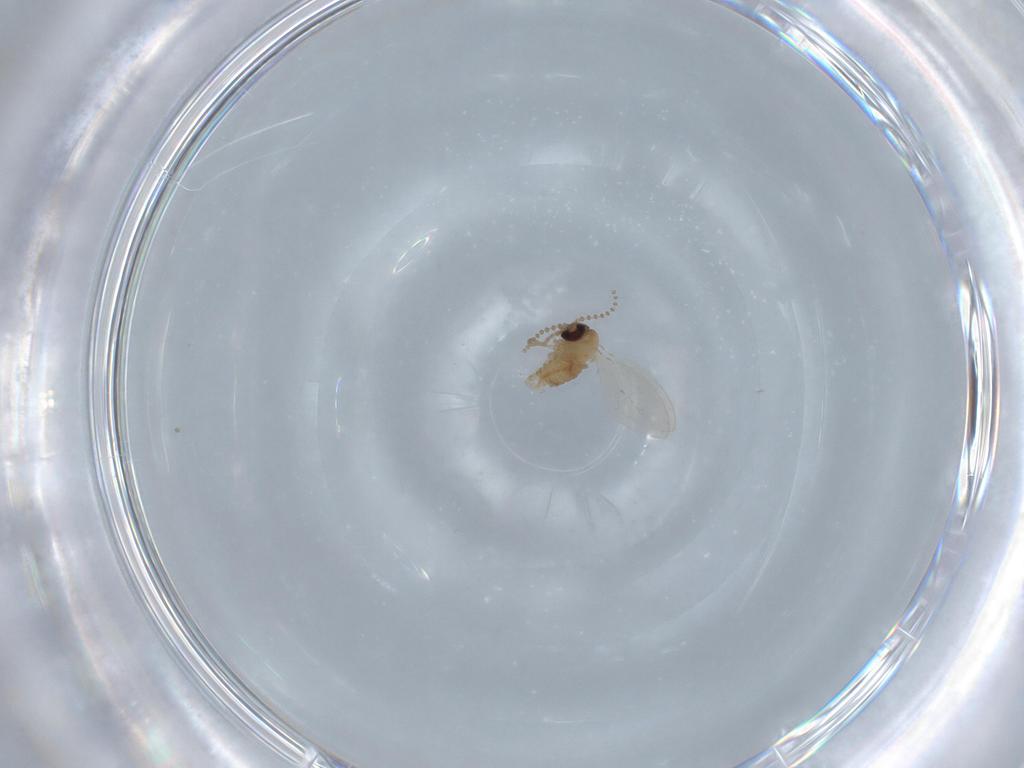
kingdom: Animalia
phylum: Arthropoda
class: Insecta
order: Diptera
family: Psychodidae
